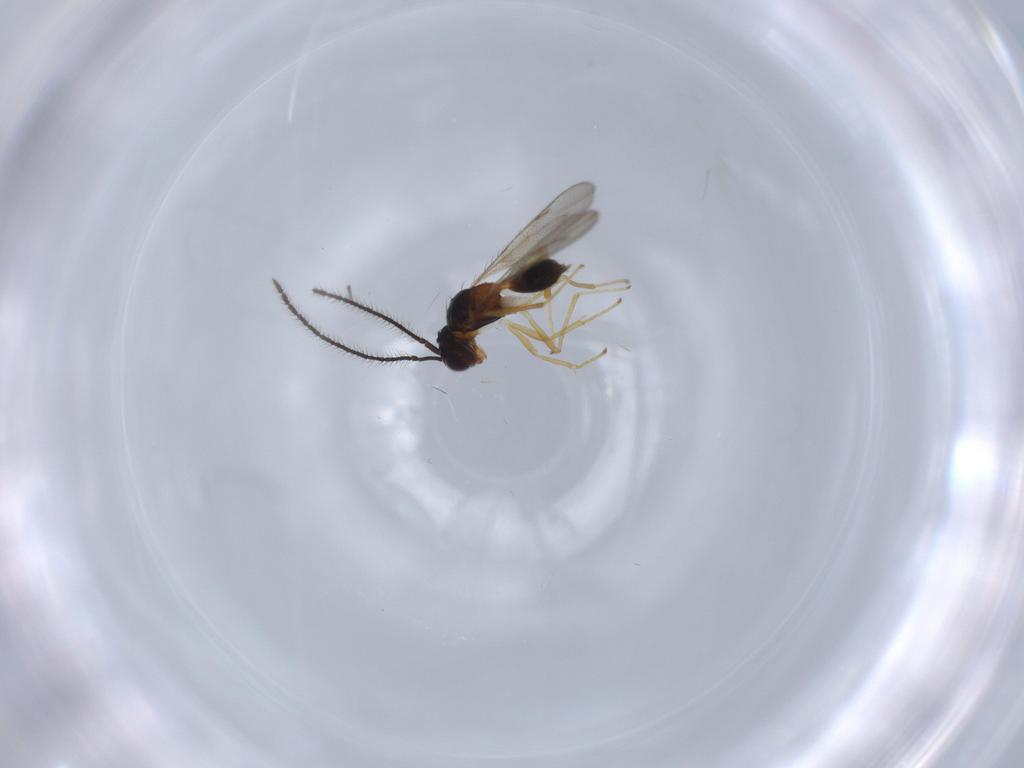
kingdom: Animalia
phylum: Arthropoda
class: Insecta
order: Hymenoptera
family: Diparidae
